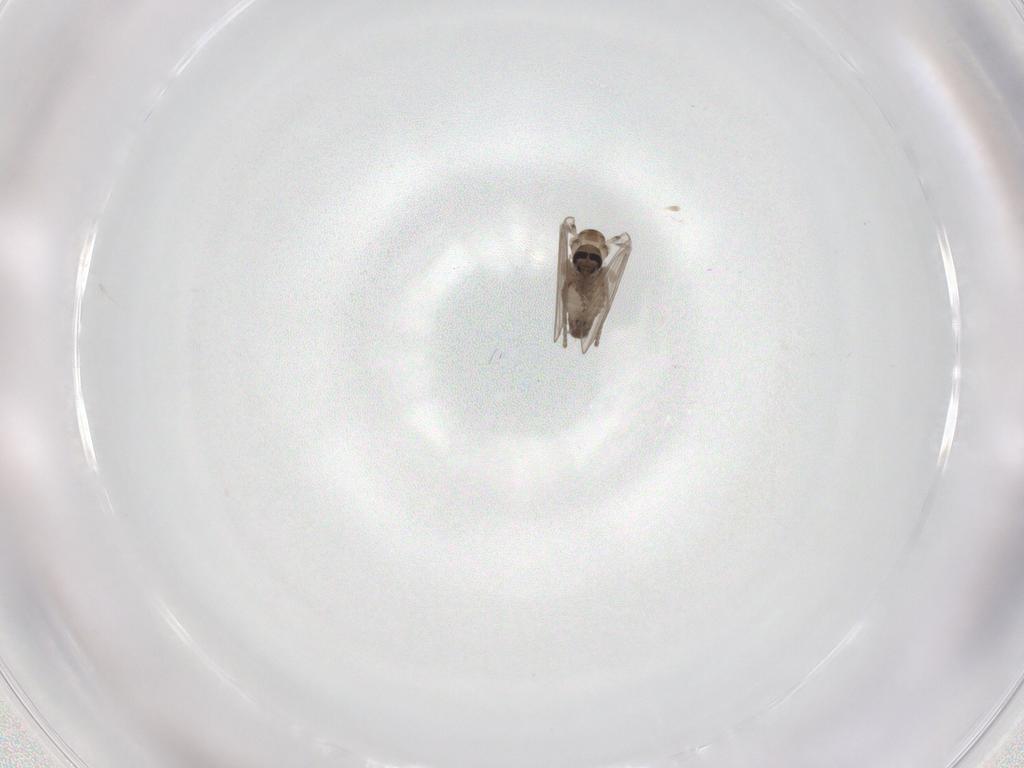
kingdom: Animalia
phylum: Arthropoda
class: Insecta
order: Diptera
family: Psychodidae
